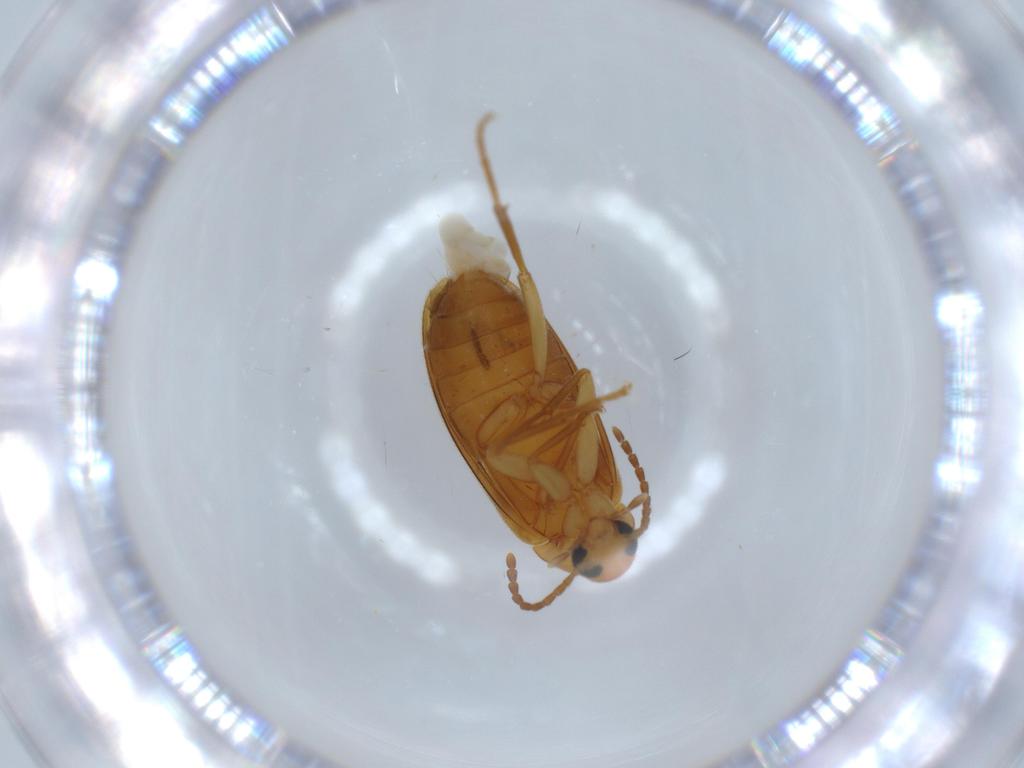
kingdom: Animalia
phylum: Arthropoda
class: Insecta
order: Coleoptera
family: Scraptiidae
